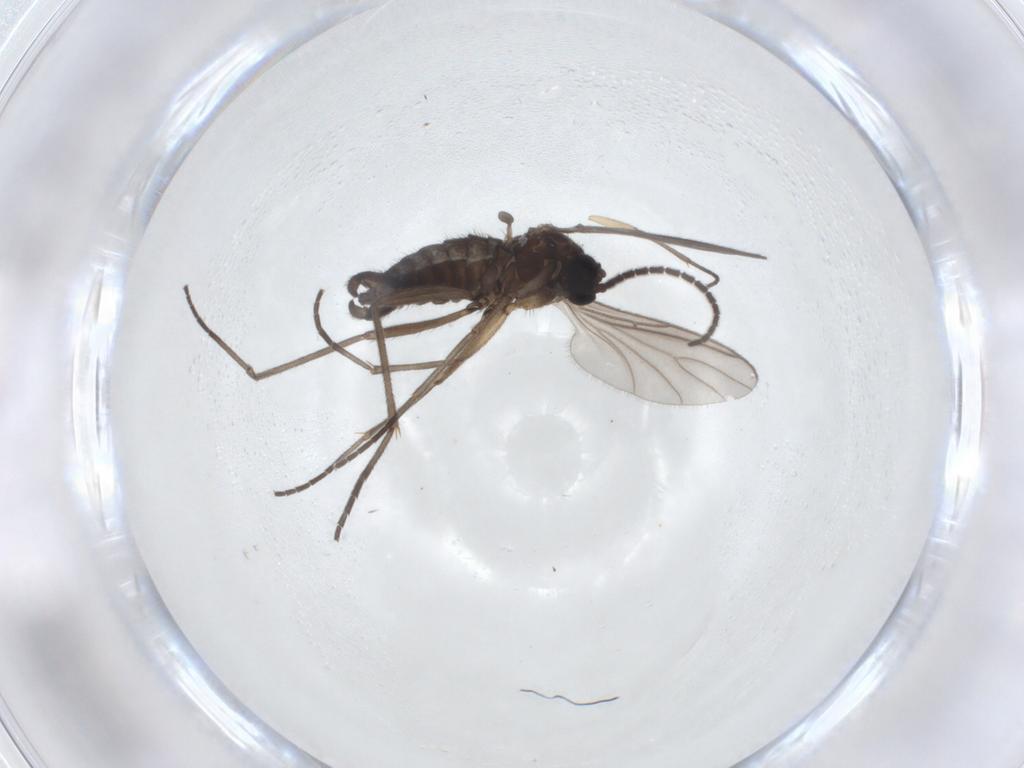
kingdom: Animalia
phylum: Arthropoda
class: Insecta
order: Diptera
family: Sciaridae
